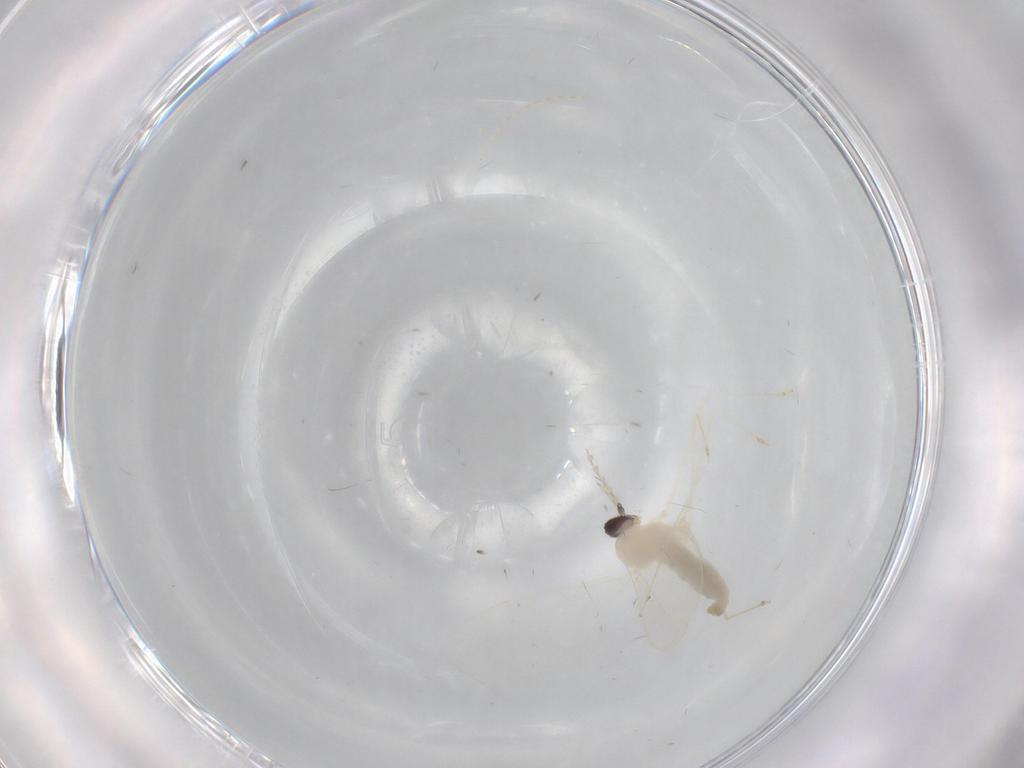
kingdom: Animalia
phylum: Arthropoda
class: Insecta
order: Diptera
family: Cecidomyiidae
